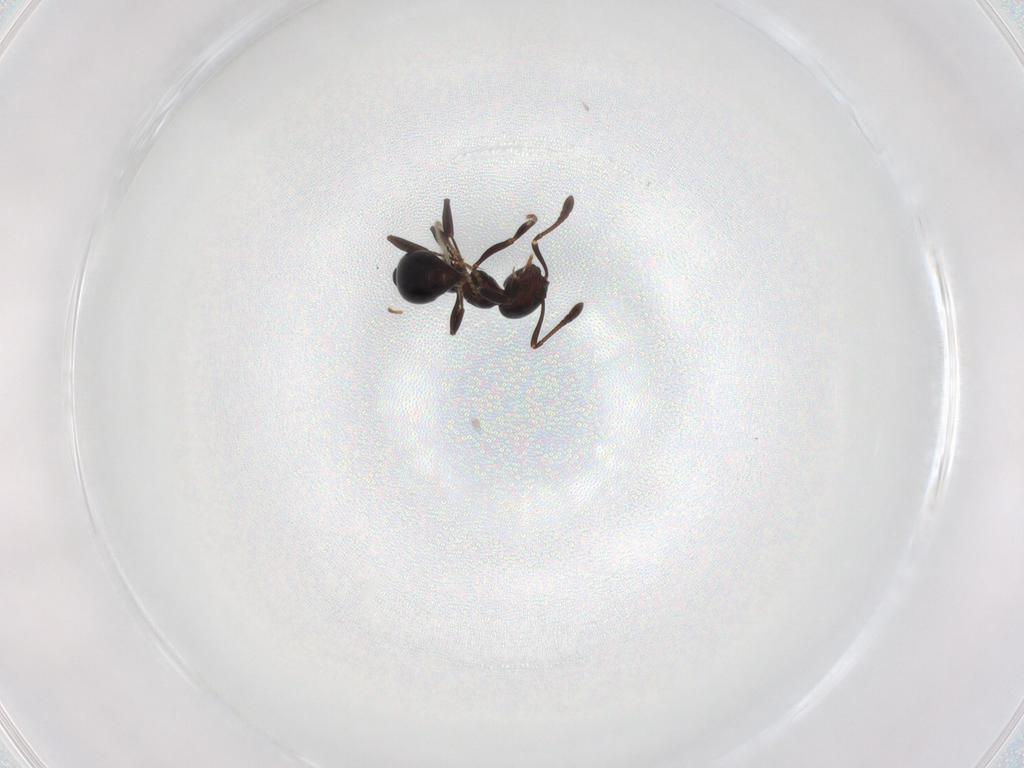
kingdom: Animalia
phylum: Arthropoda
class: Insecta
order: Hymenoptera
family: Formicidae
